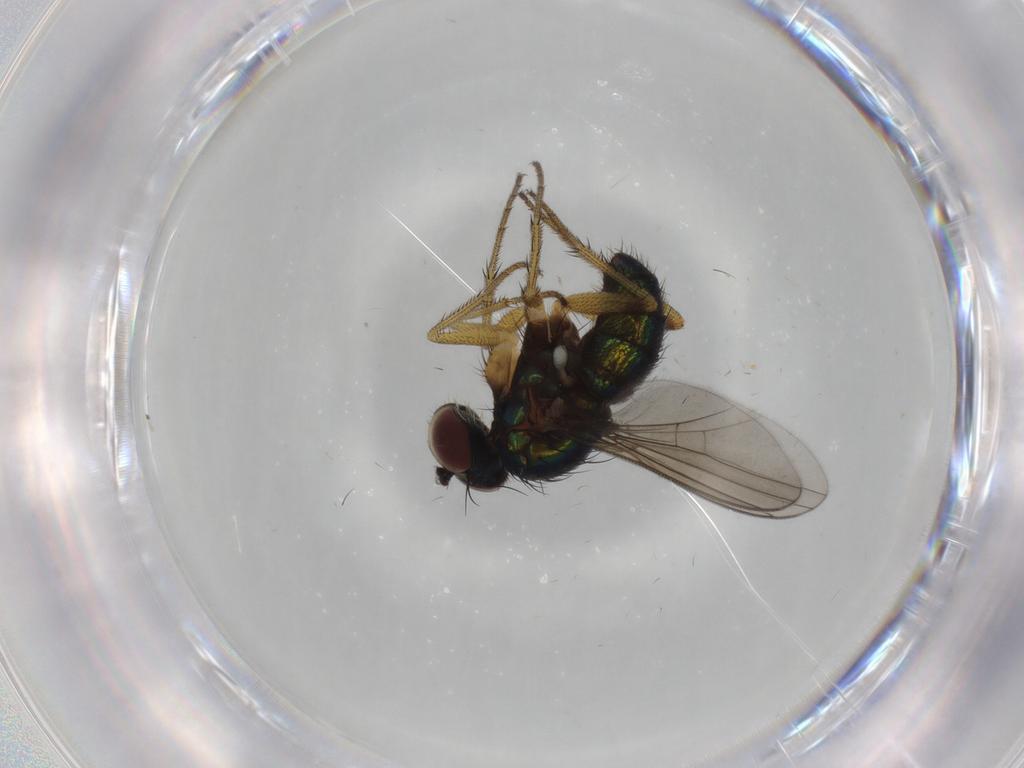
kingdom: Animalia
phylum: Arthropoda
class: Insecta
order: Diptera
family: Dolichopodidae
